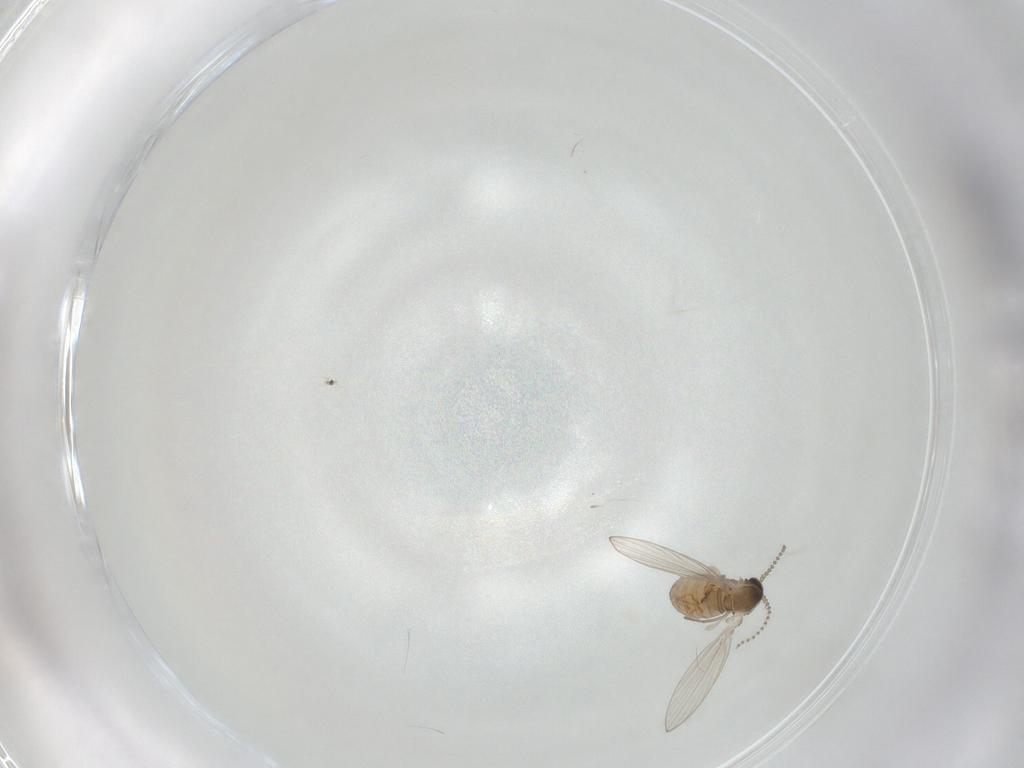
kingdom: Animalia
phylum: Arthropoda
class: Insecta
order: Diptera
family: Psychodidae
